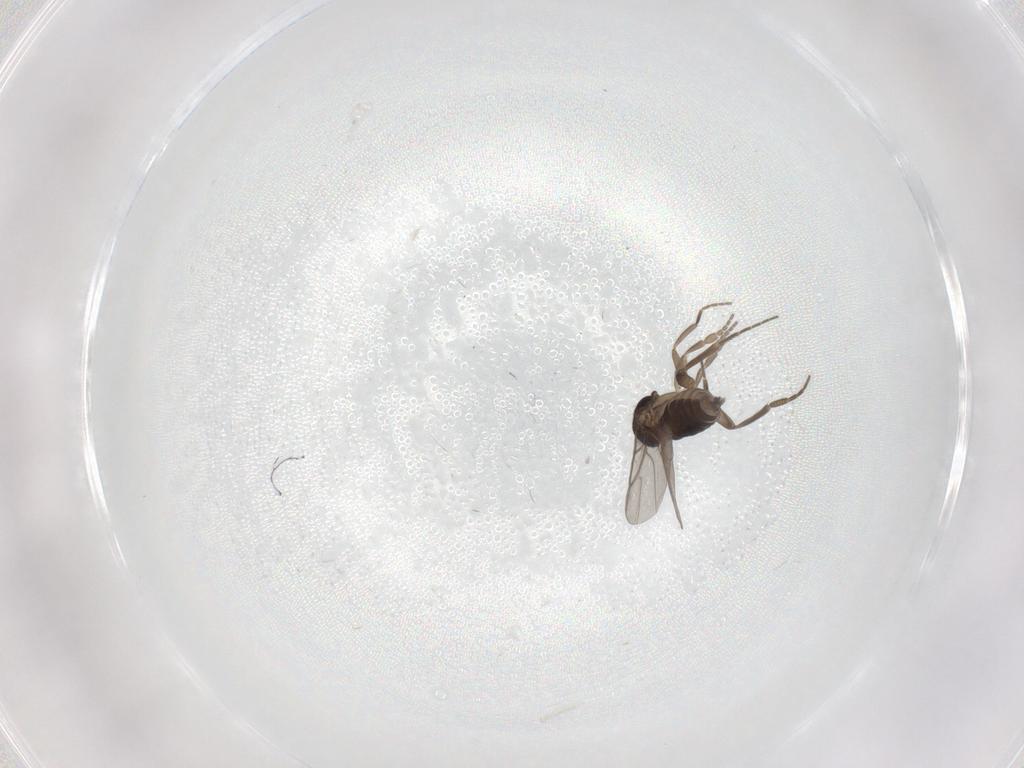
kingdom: Animalia
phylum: Arthropoda
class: Insecta
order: Diptera
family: Phoridae
